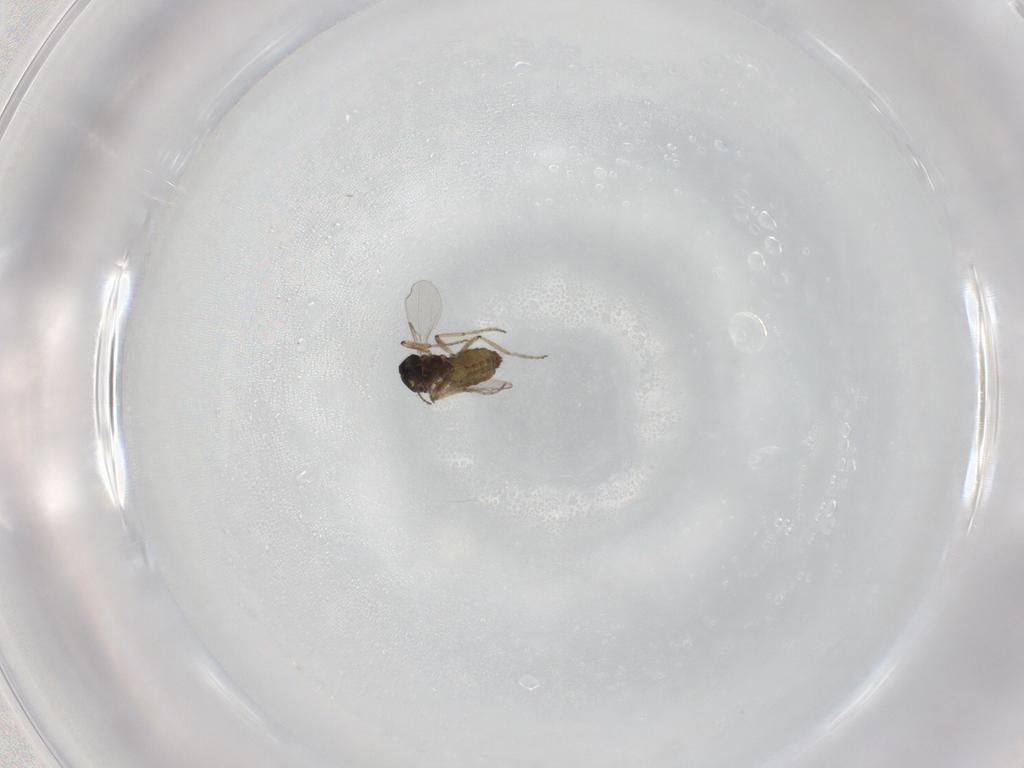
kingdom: Animalia
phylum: Arthropoda
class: Insecta
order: Diptera
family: Ceratopogonidae
